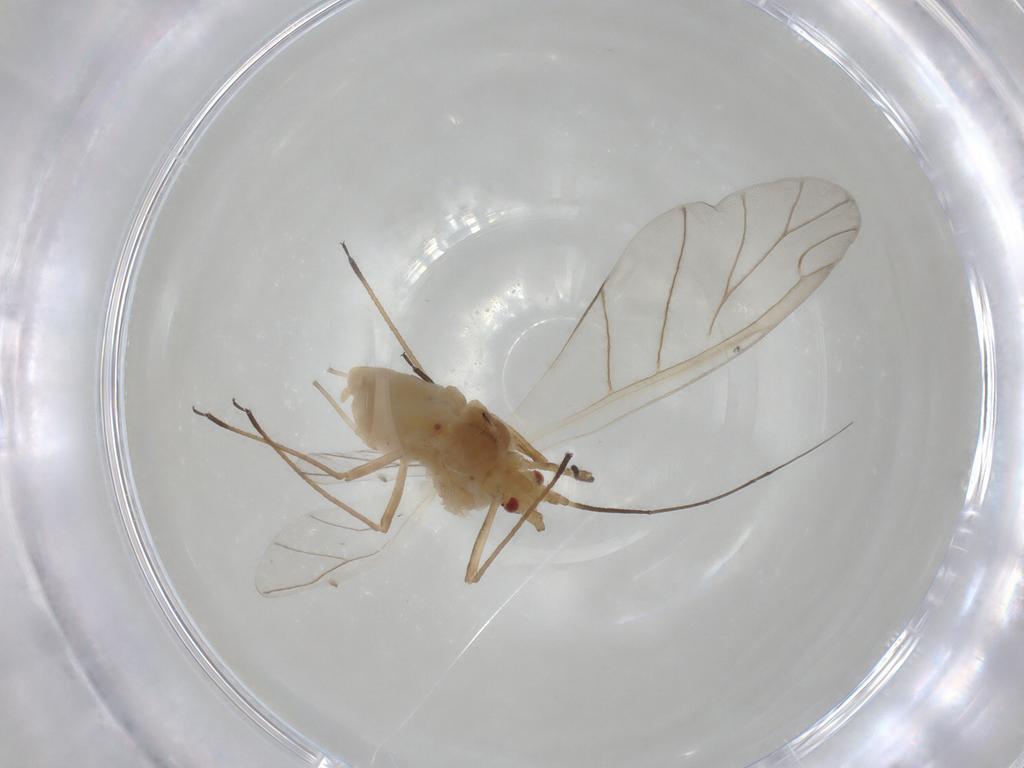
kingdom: Animalia
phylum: Arthropoda
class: Insecta
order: Hemiptera
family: Aphididae
